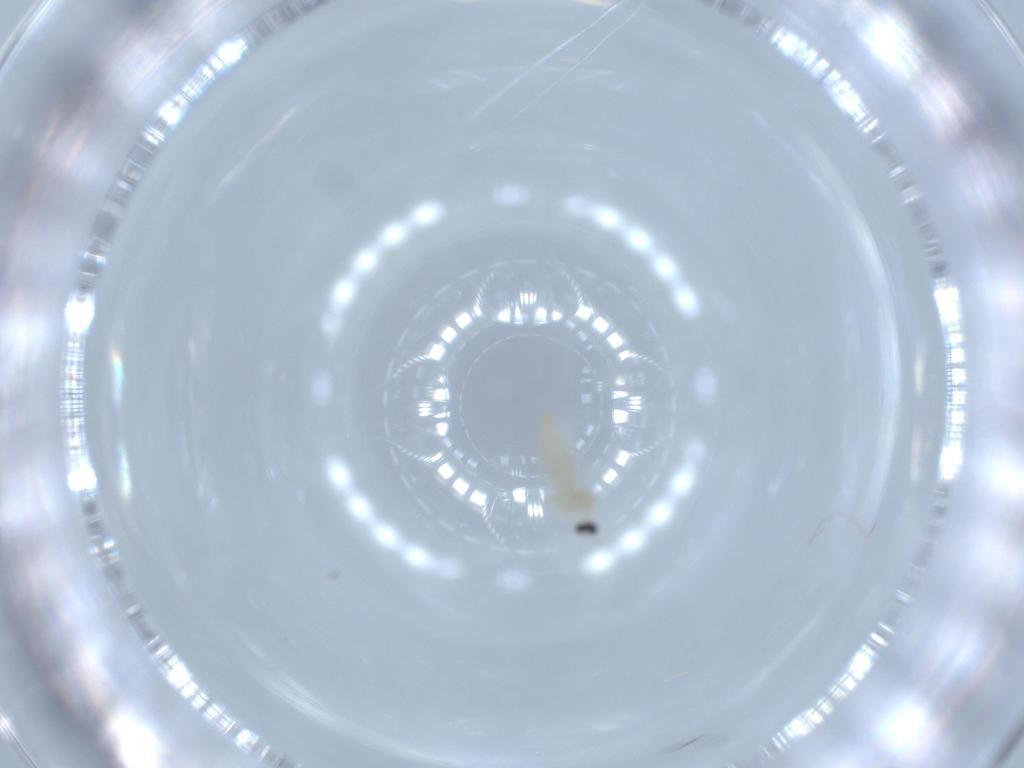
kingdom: Animalia
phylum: Arthropoda
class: Insecta
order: Diptera
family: Cecidomyiidae
